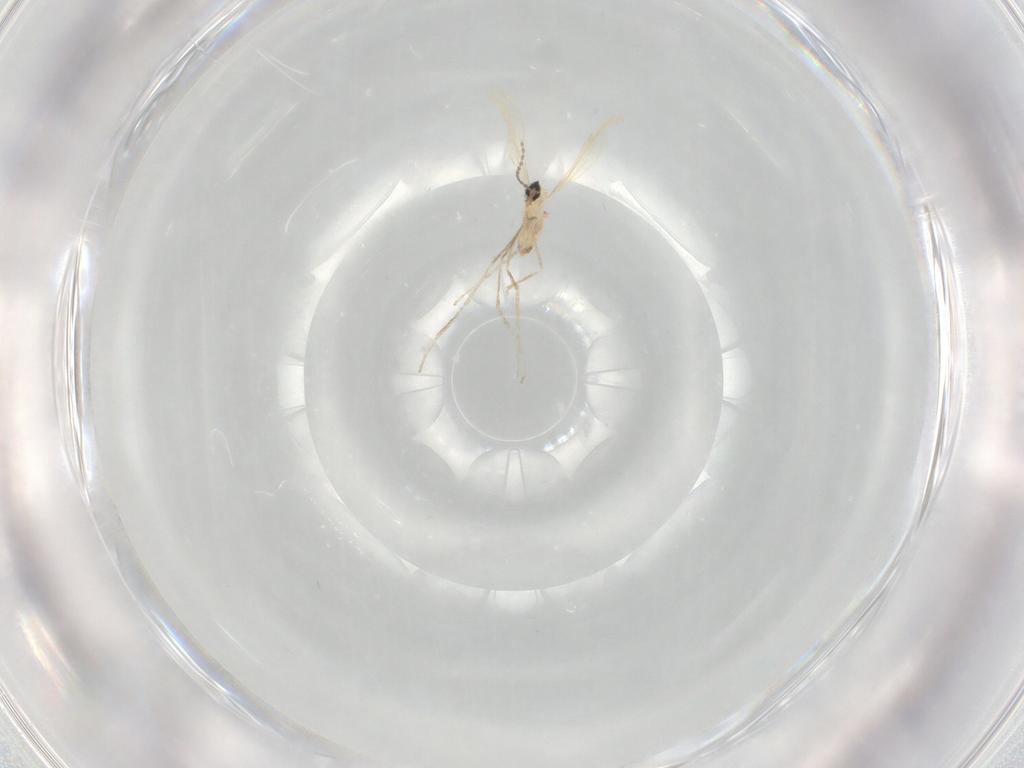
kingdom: Animalia
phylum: Arthropoda
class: Insecta
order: Diptera
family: Cecidomyiidae
